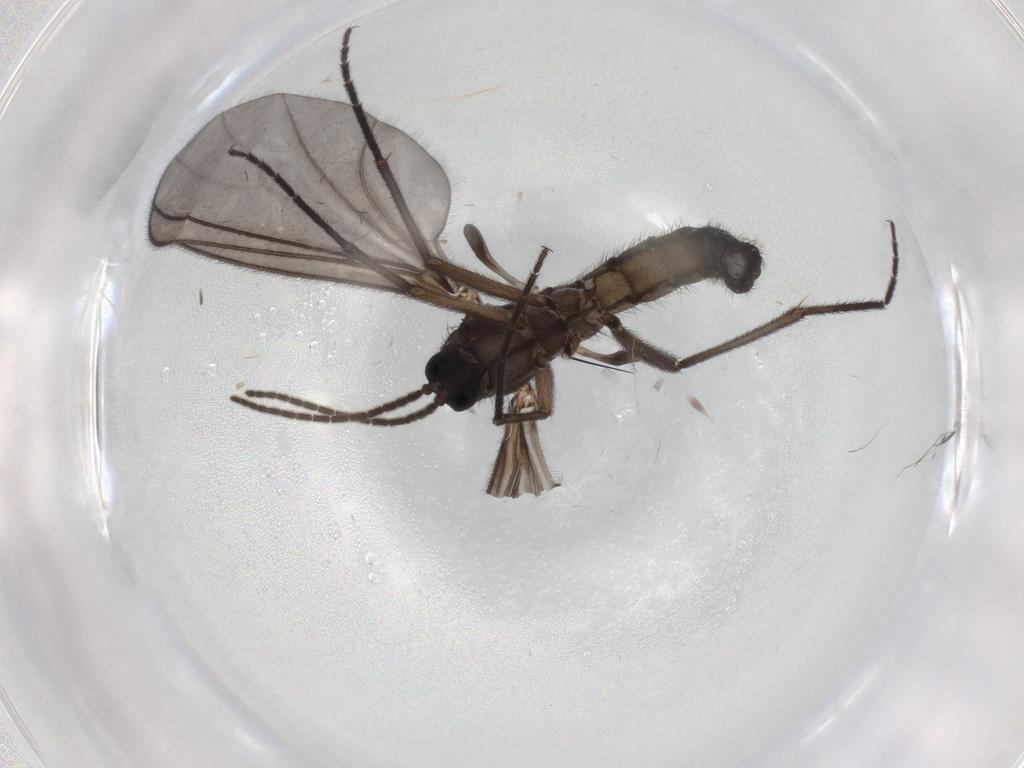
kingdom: Animalia
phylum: Arthropoda
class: Insecta
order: Diptera
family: Sciaridae
